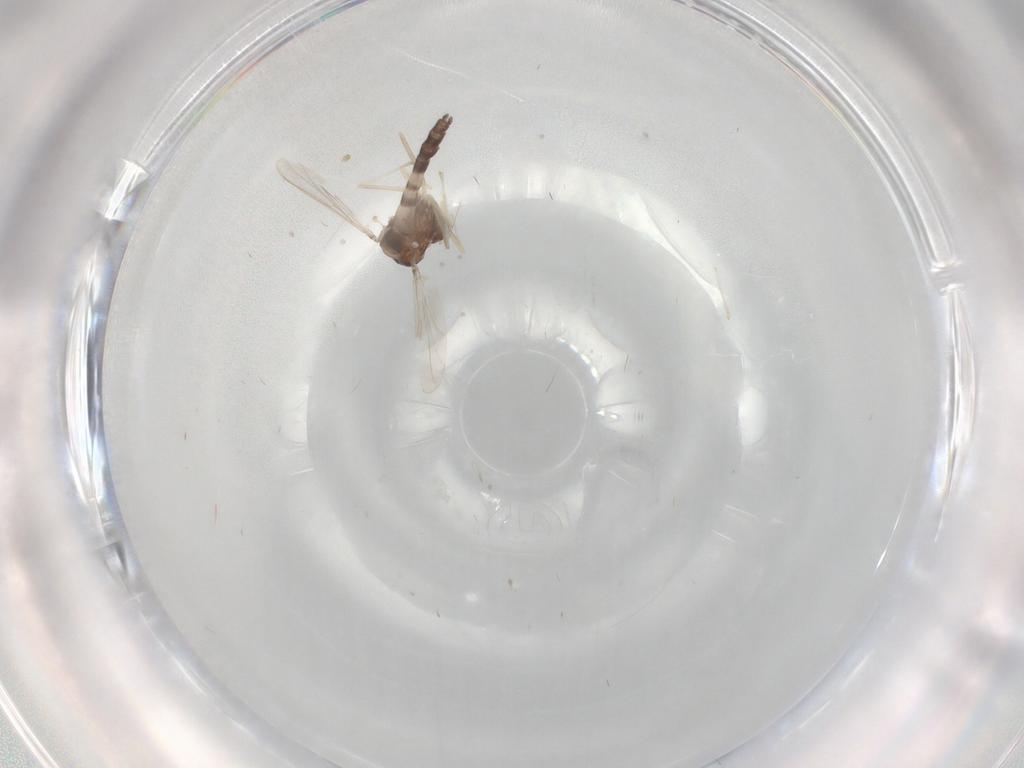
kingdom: Animalia
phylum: Arthropoda
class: Insecta
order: Diptera
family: Chironomidae
